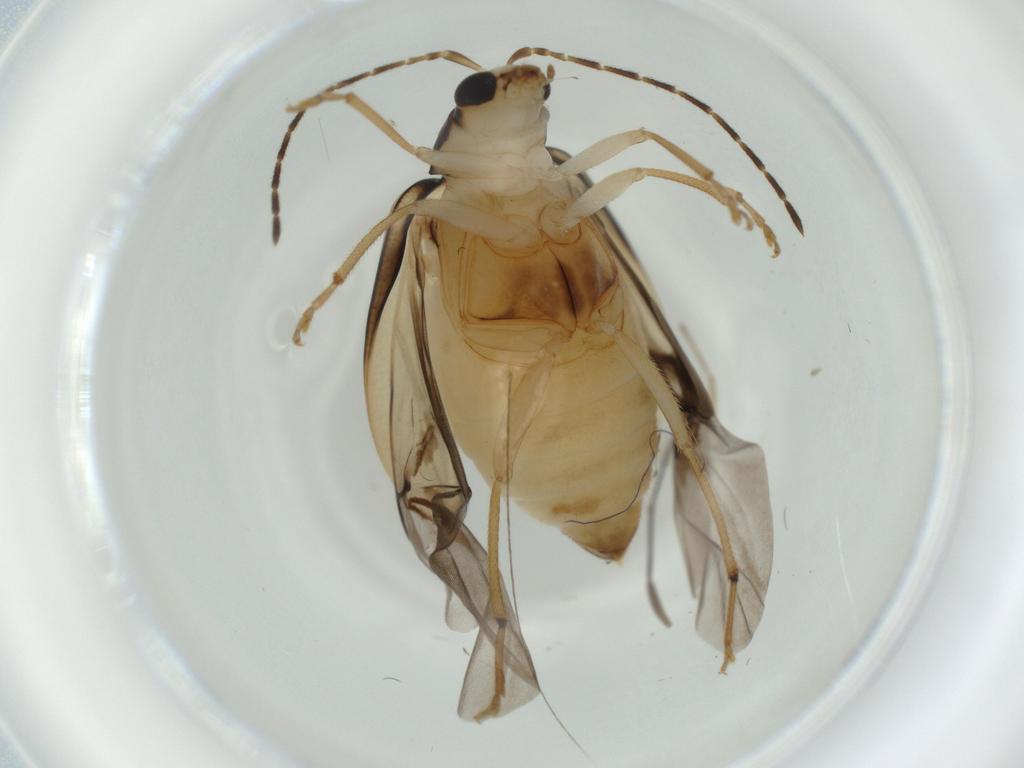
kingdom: Animalia
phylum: Arthropoda
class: Insecta
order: Coleoptera
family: Chrysomelidae
